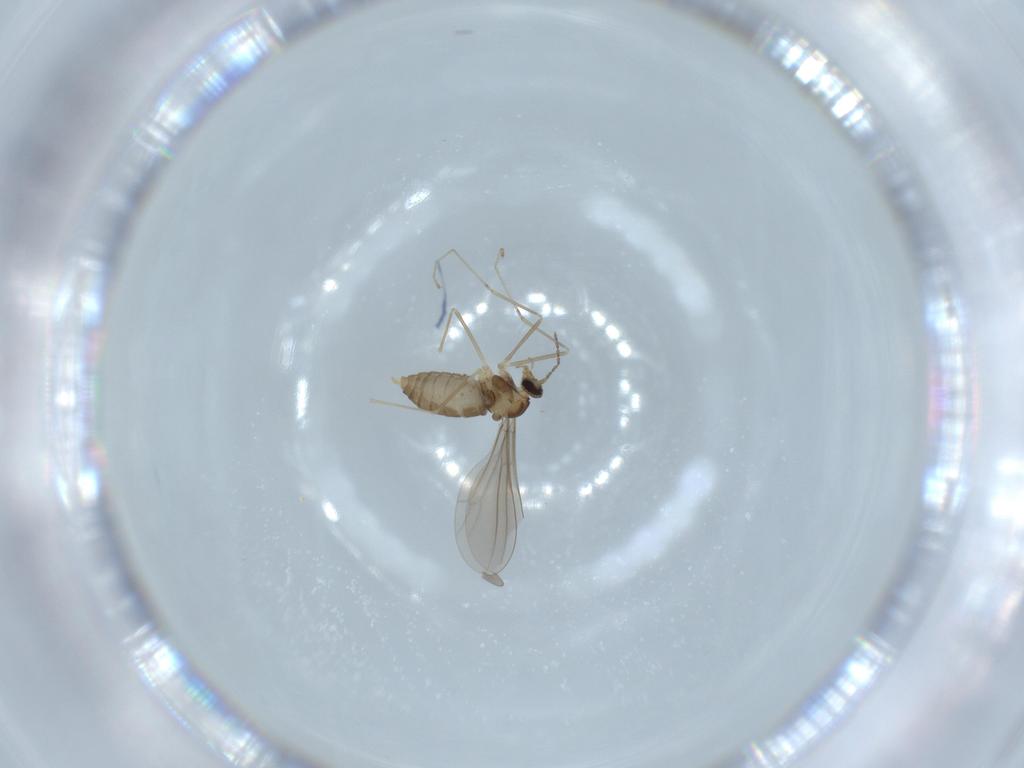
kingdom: Animalia
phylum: Arthropoda
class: Insecta
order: Diptera
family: Cecidomyiidae
